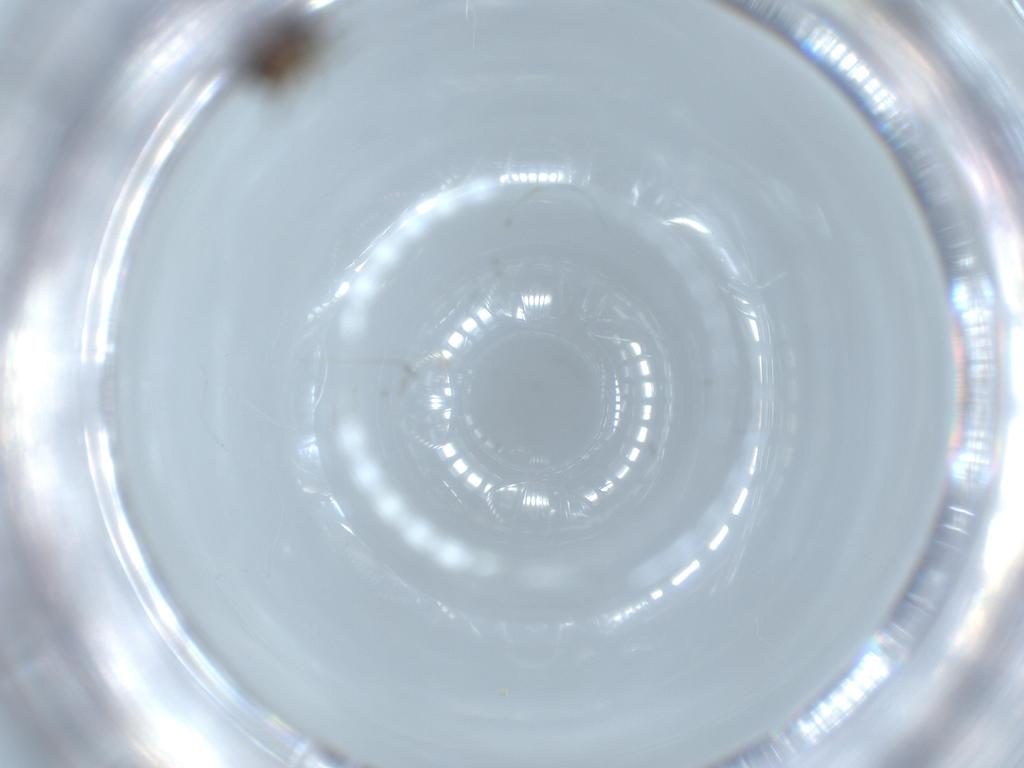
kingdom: Animalia
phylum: Arthropoda
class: Insecta
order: Diptera
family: Phoridae
